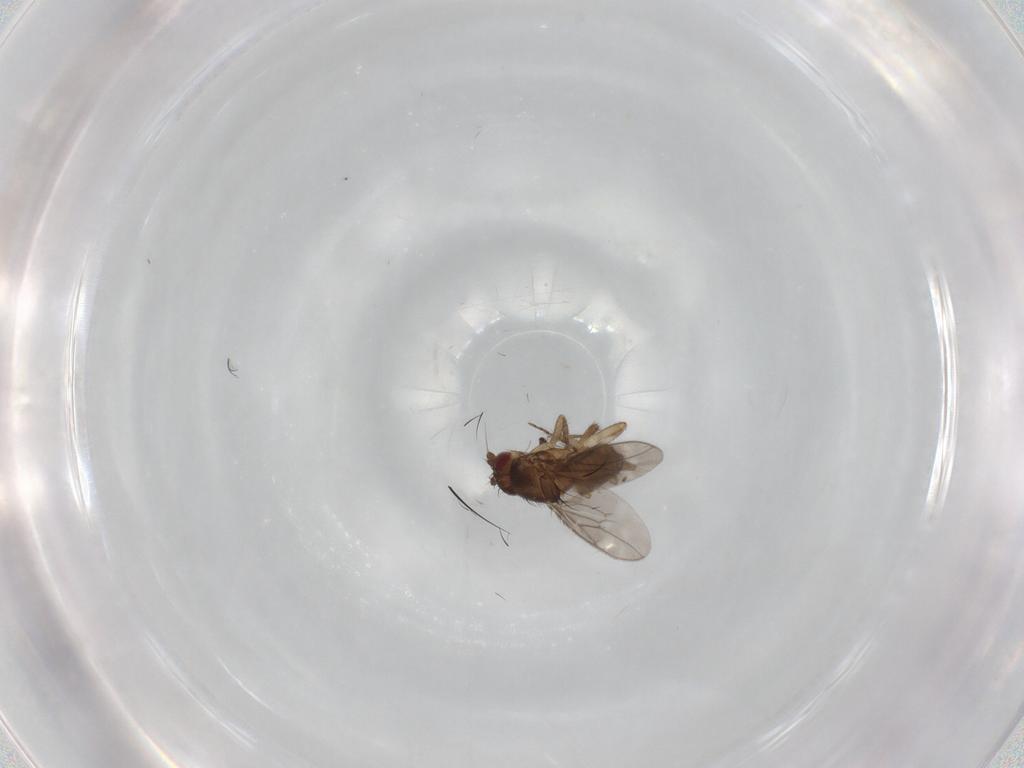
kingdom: Animalia
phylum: Arthropoda
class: Insecta
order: Diptera
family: Sphaeroceridae
